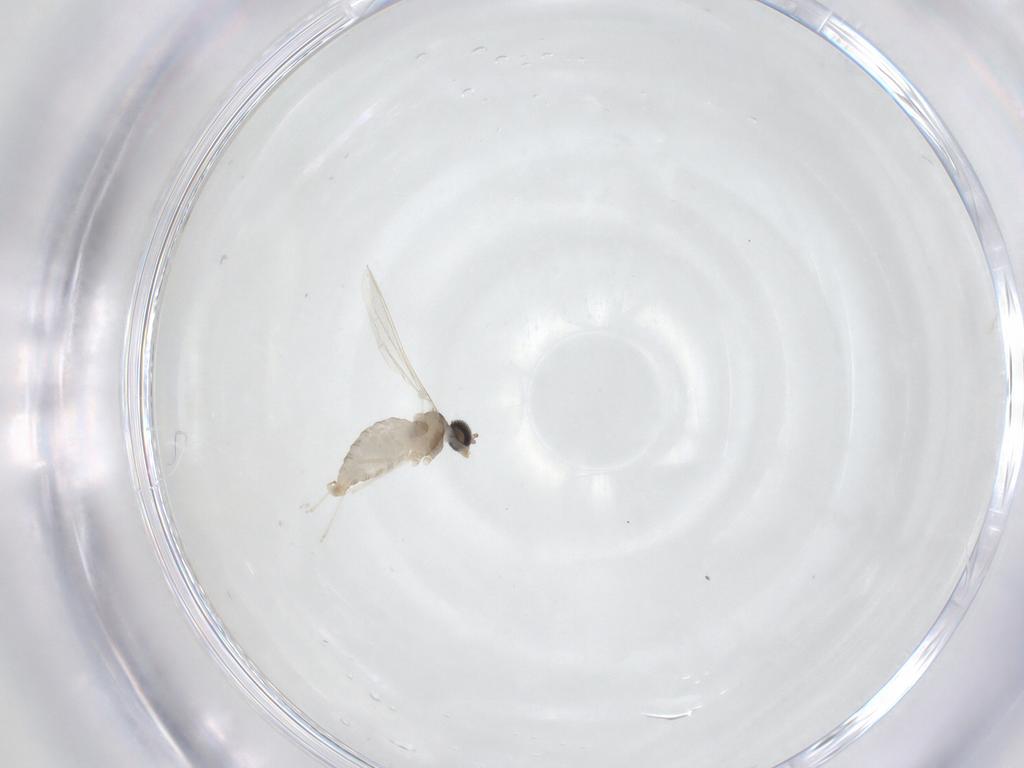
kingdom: Animalia
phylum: Arthropoda
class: Insecta
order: Diptera
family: Cecidomyiidae
